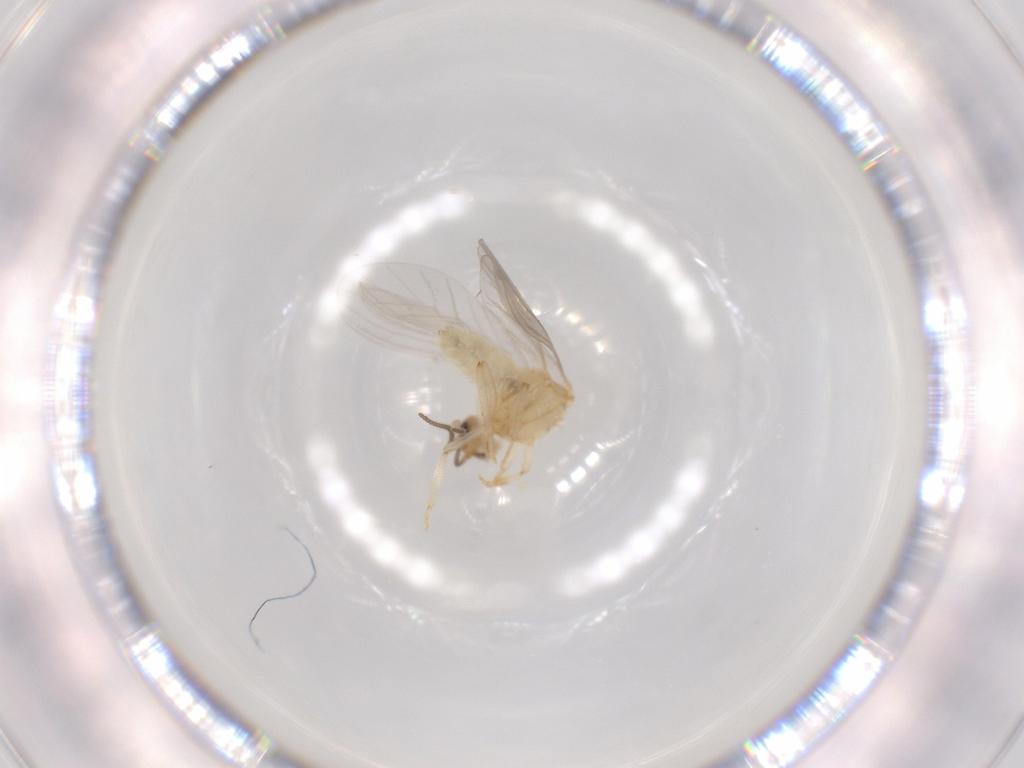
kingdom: Animalia
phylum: Arthropoda
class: Insecta
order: Neuroptera
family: Coniopterygidae
